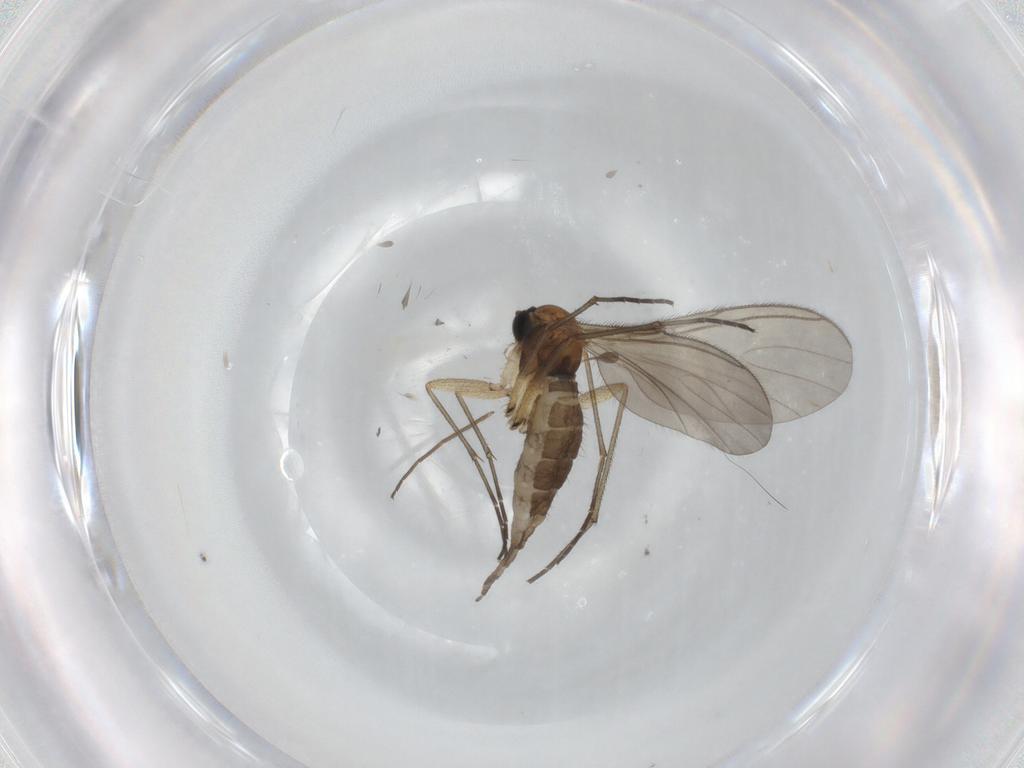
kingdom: Animalia
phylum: Arthropoda
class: Insecta
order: Diptera
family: Sciaridae
